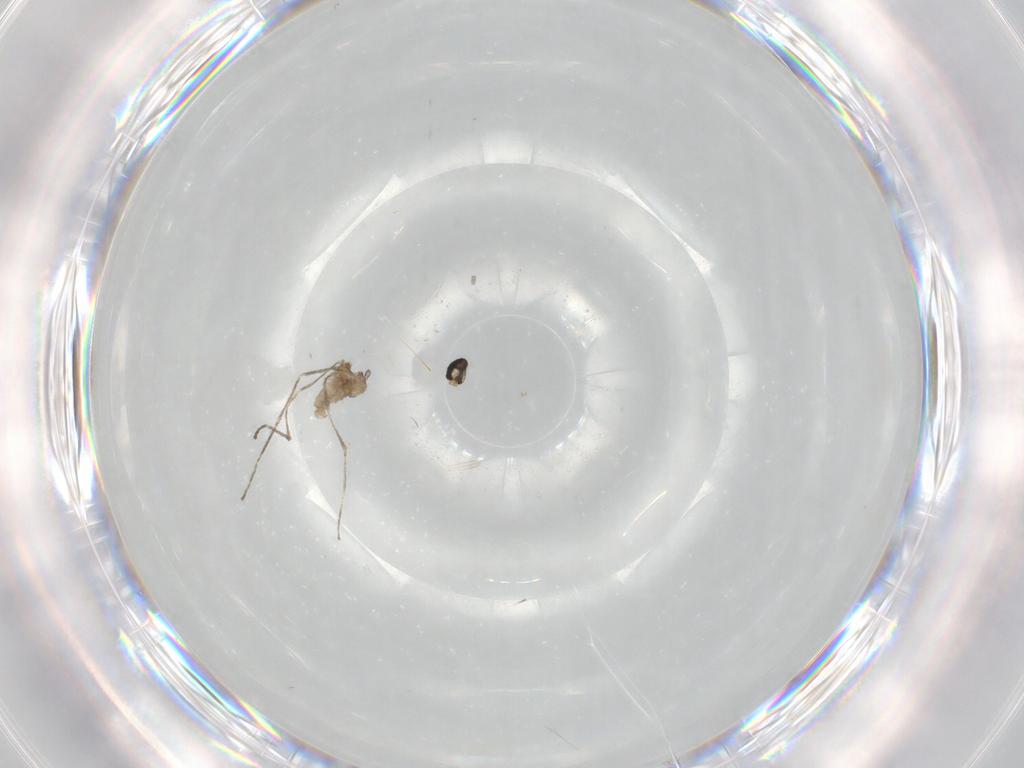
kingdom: Animalia
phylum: Arthropoda
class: Insecta
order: Diptera
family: Cecidomyiidae
